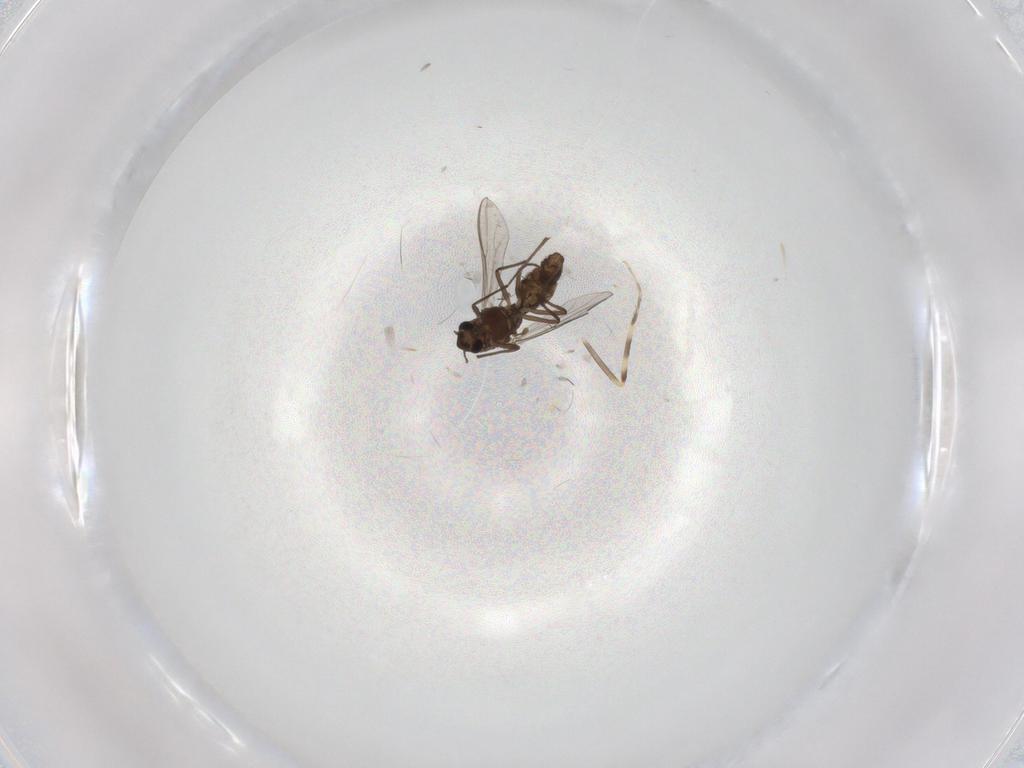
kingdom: Animalia
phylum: Arthropoda
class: Insecta
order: Diptera
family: Chironomidae
